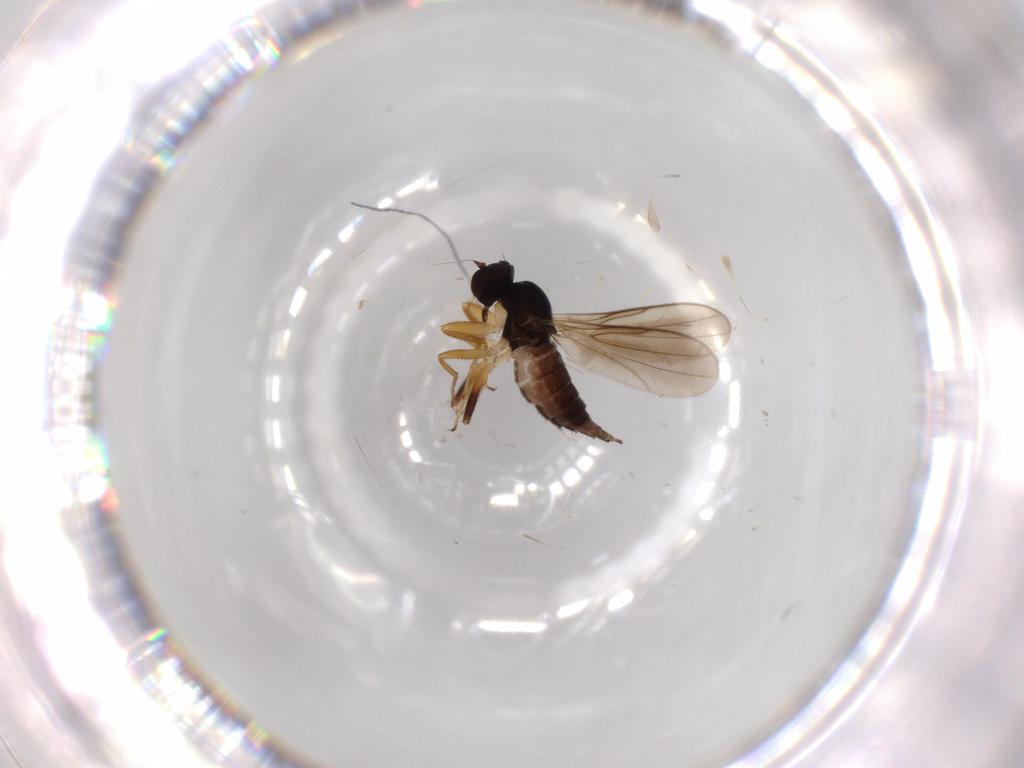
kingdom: Animalia
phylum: Arthropoda
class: Insecta
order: Diptera
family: Hybotidae
